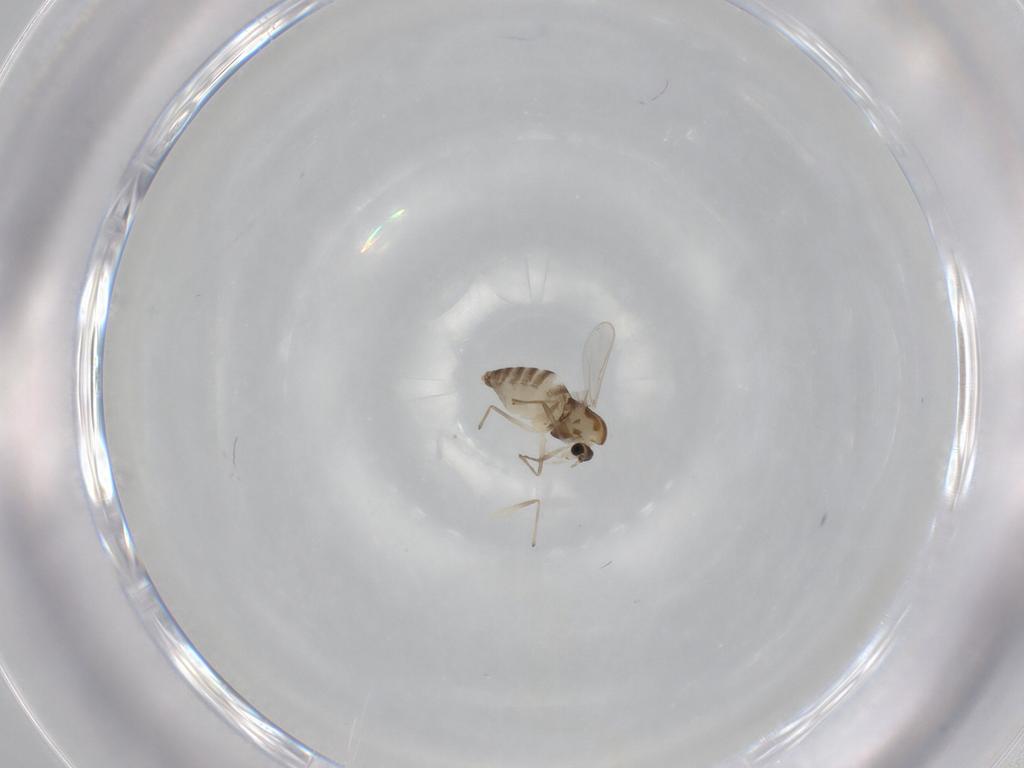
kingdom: Animalia
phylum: Arthropoda
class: Insecta
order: Diptera
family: Chironomidae
